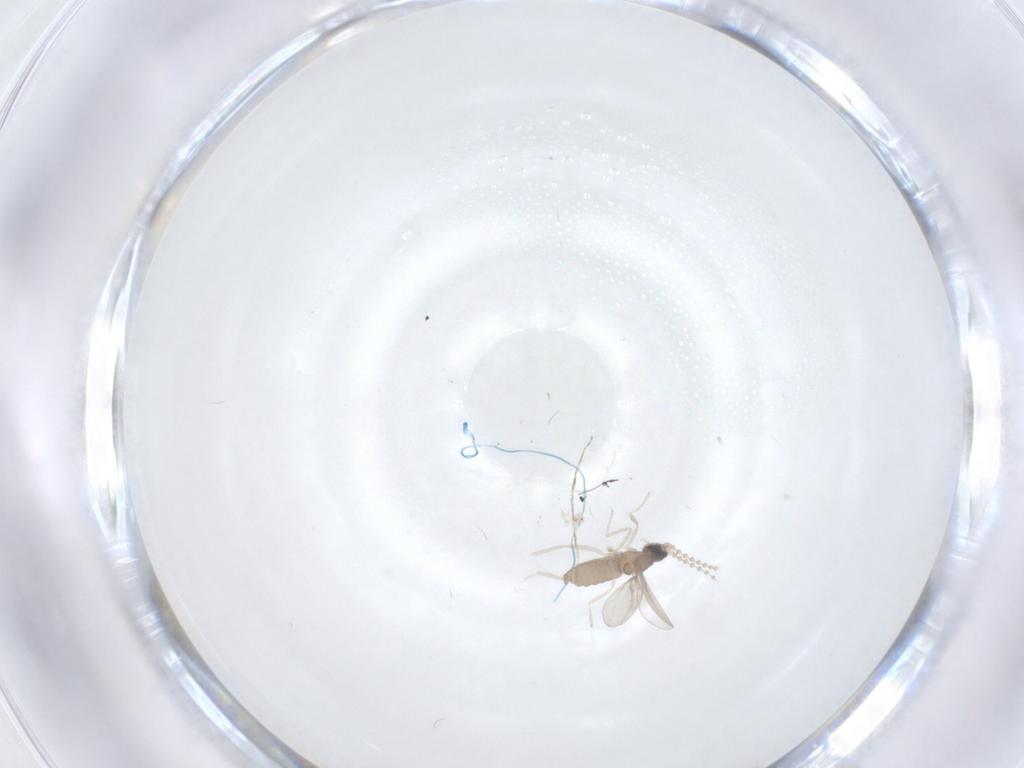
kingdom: Animalia
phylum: Arthropoda
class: Insecta
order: Diptera
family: Cecidomyiidae
